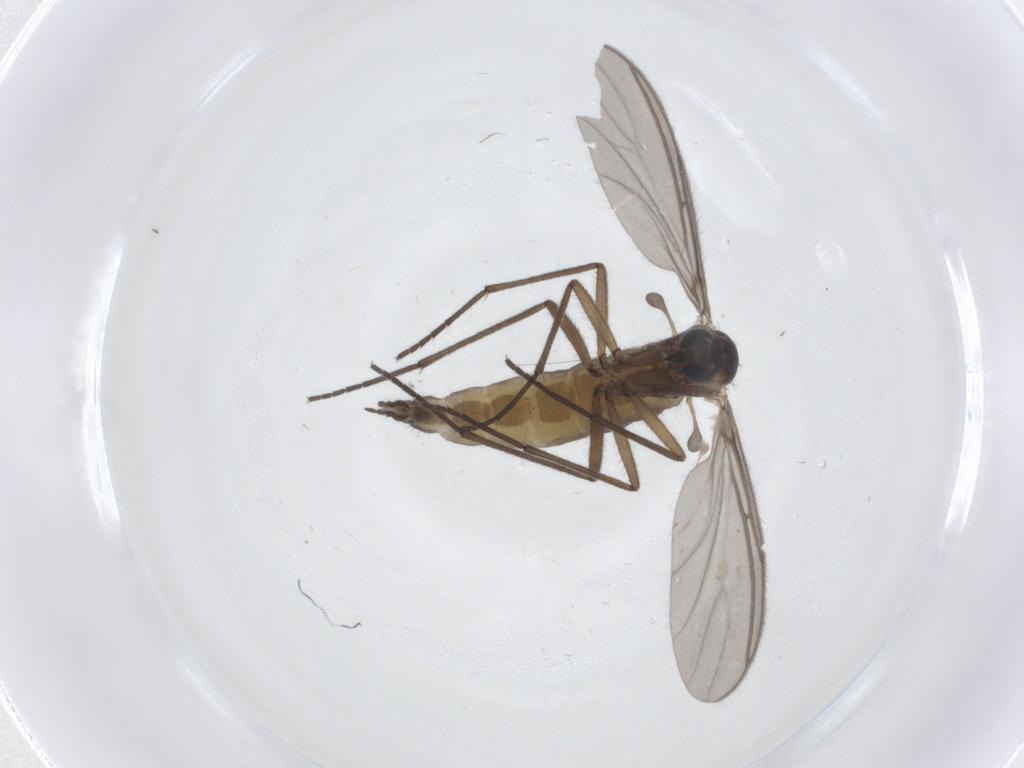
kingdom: Animalia
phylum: Arthropoda
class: Insecta
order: Diptera
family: Sciaridae
